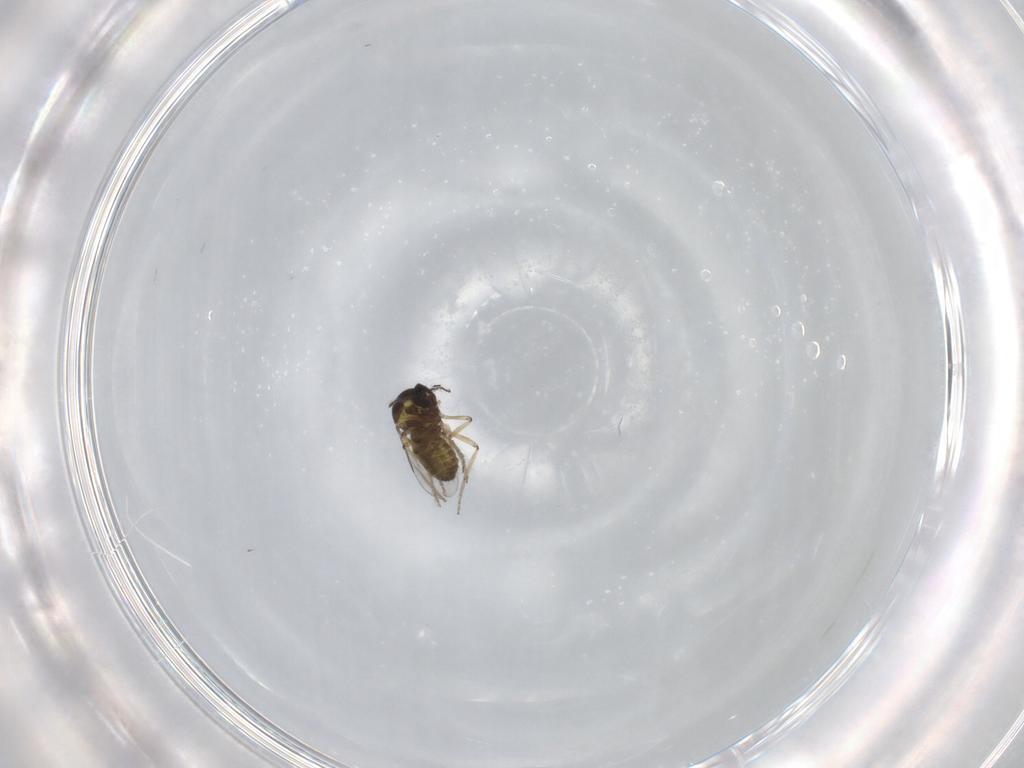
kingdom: Animalia
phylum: Arthropoda
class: Insecta
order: Diptera
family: Ceratopogonidae
